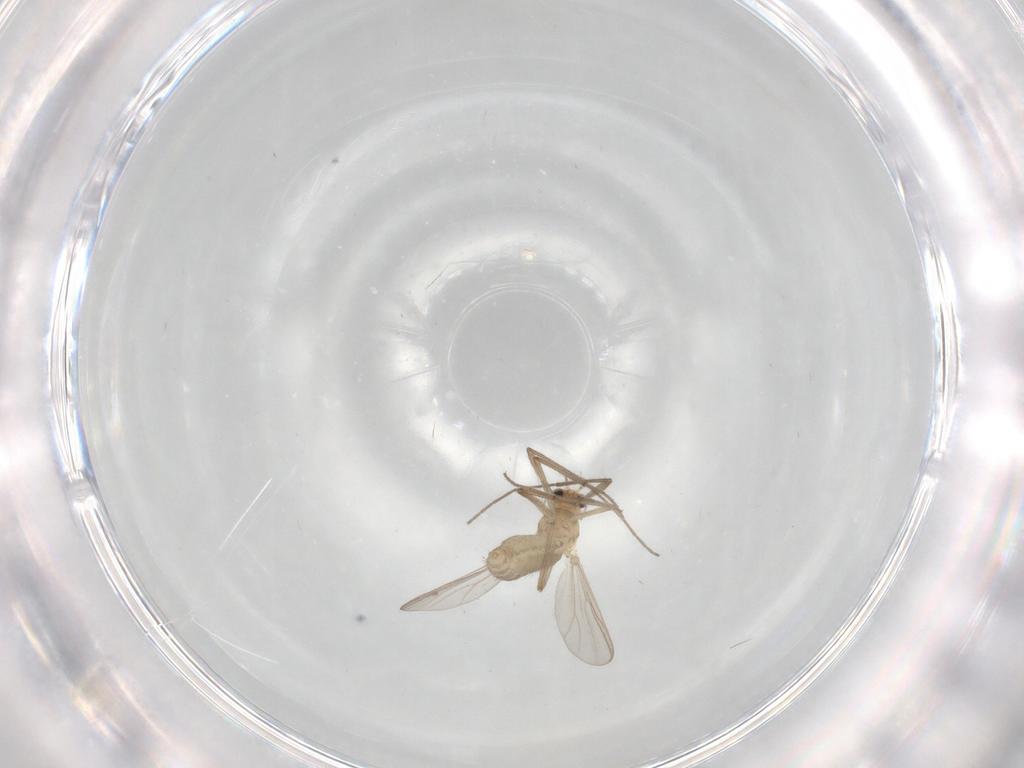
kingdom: Animalia
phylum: Arthropoda
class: Insecta
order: Diptera
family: Chironomidae
